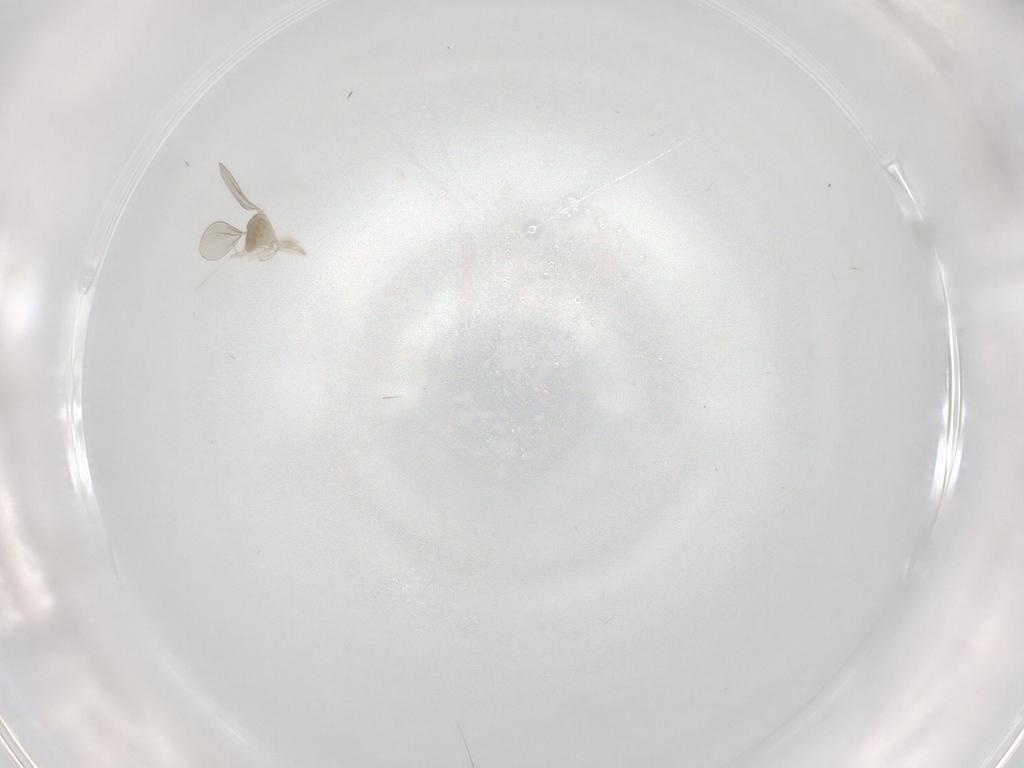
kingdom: Animalia
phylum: Arthropoda
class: Insecta
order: Diptera
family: Cecidomyiidae
